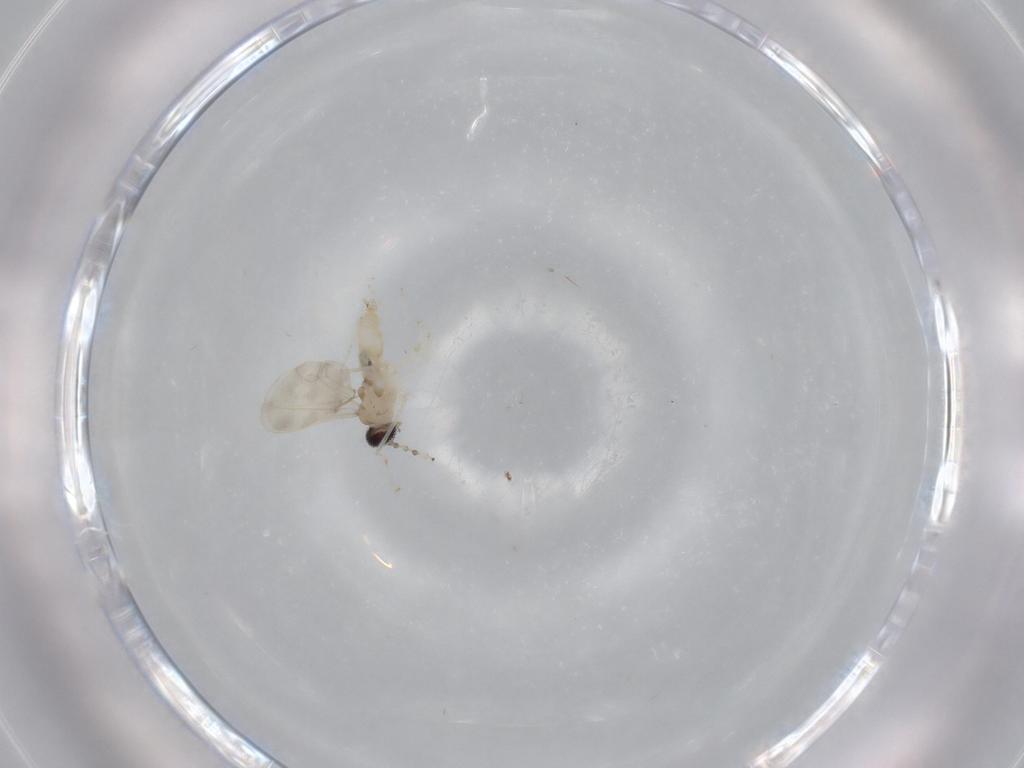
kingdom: Animalia
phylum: Arthropoda
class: Insecta
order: Diptera
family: Cecidomyiidae
